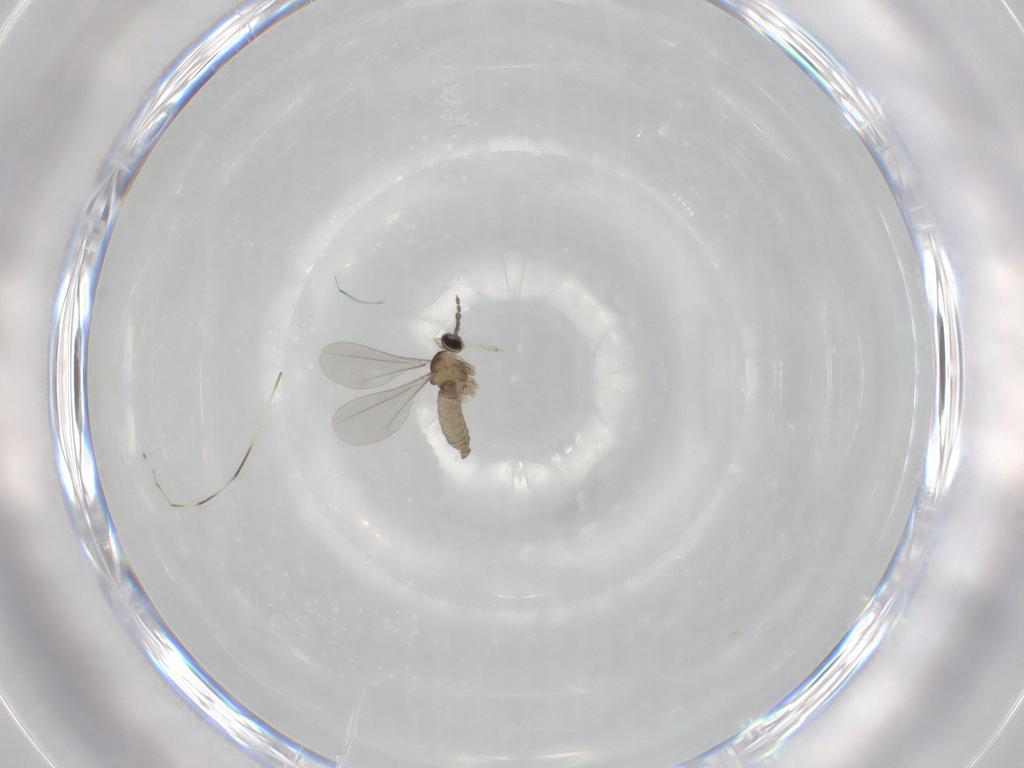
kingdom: Animalia
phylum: Arthropoda
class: Insecta
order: Diptera
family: Chironomidae
